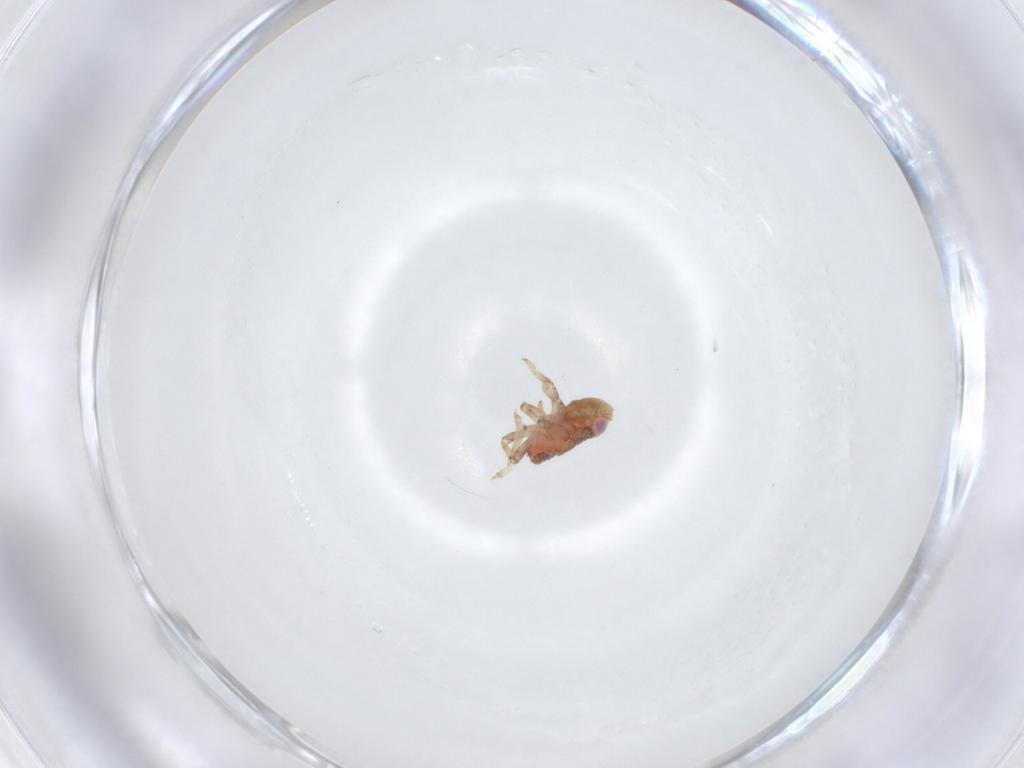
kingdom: Animalia
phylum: Arthropoda
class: Insecta
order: Hemiptera
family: Issidae
